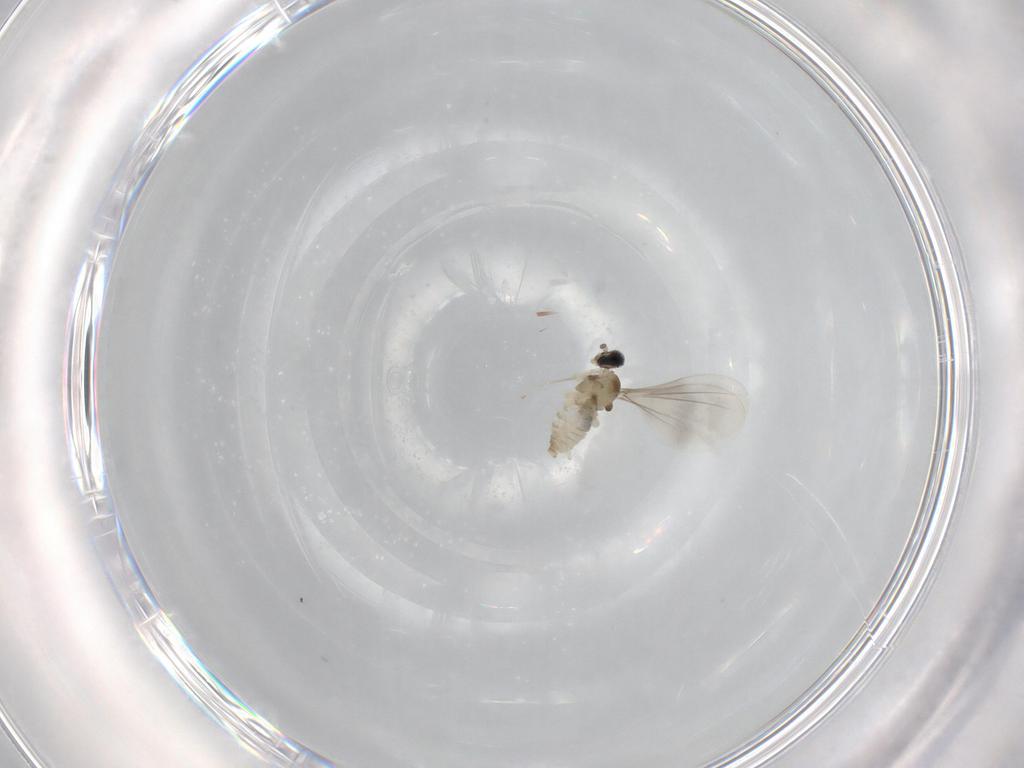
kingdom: Animalia
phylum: Arthropoda
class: Insecta
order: Diptera
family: Cecidomyiidae
